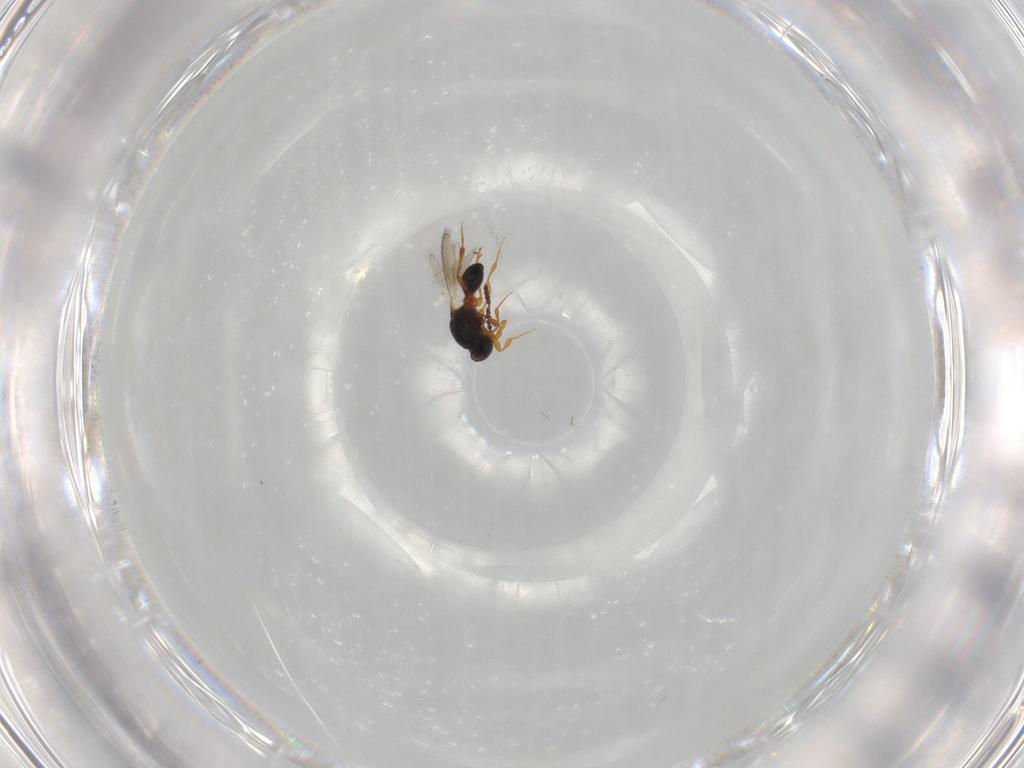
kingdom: Animalia
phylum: Arthropoda
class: Insecta
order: Hymenoptera
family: Platygastridae
